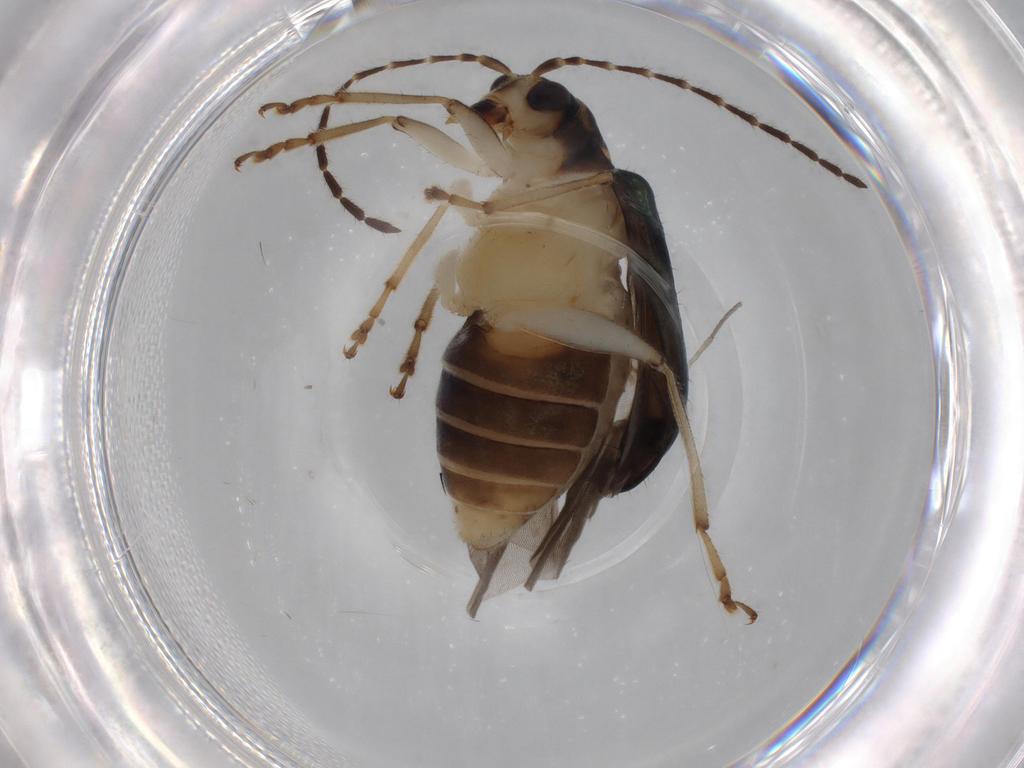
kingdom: Animalia
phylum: Arthropoda
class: Insecta
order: Coleoptera
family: Chrysomelidae
